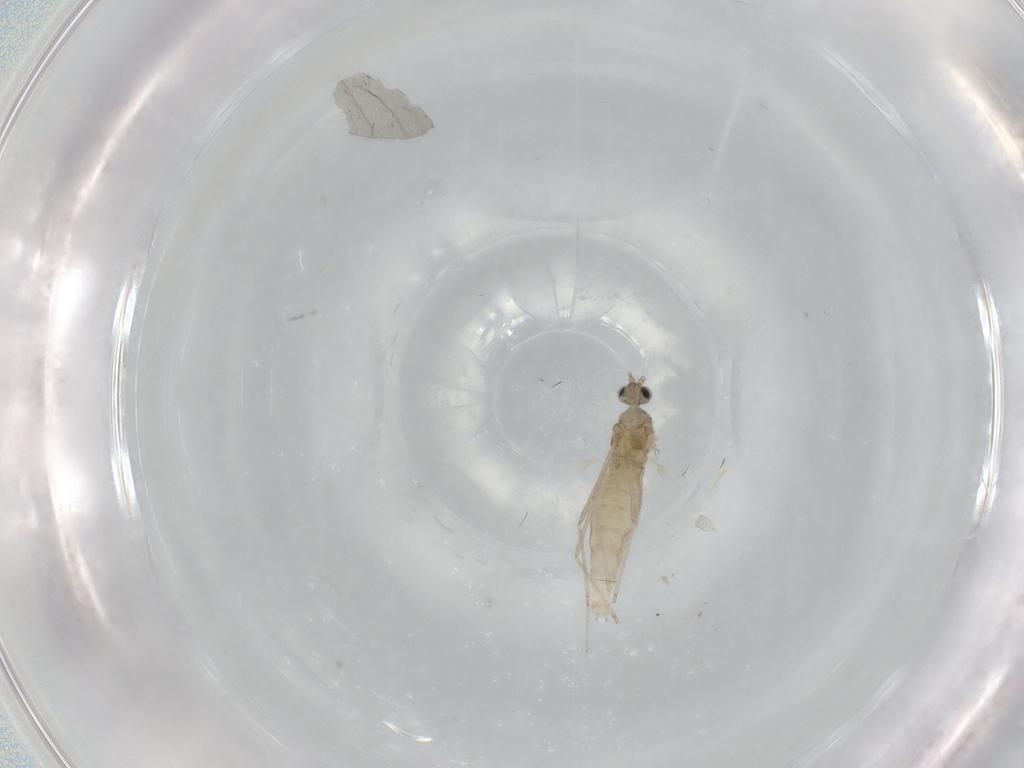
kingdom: Animalia
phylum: Arthropoda
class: Insecta
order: Diptera
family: Cecidomyiidae
